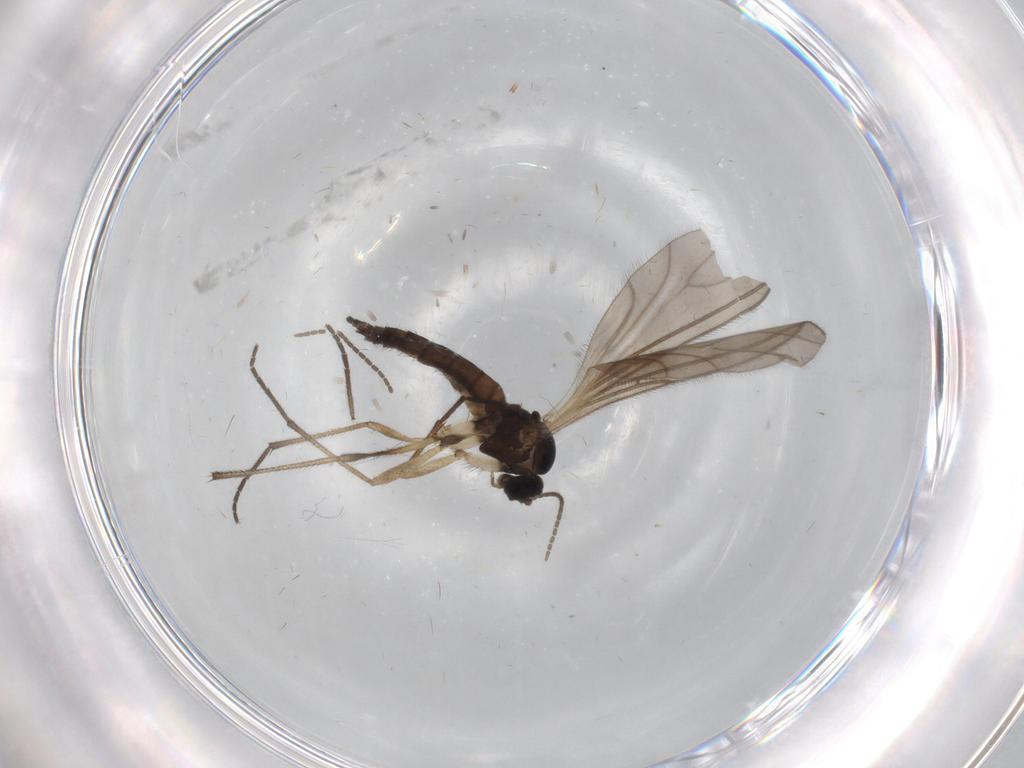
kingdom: Animalia
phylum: Arthropoda
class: Insecta
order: Diptera
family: Sciaridae
